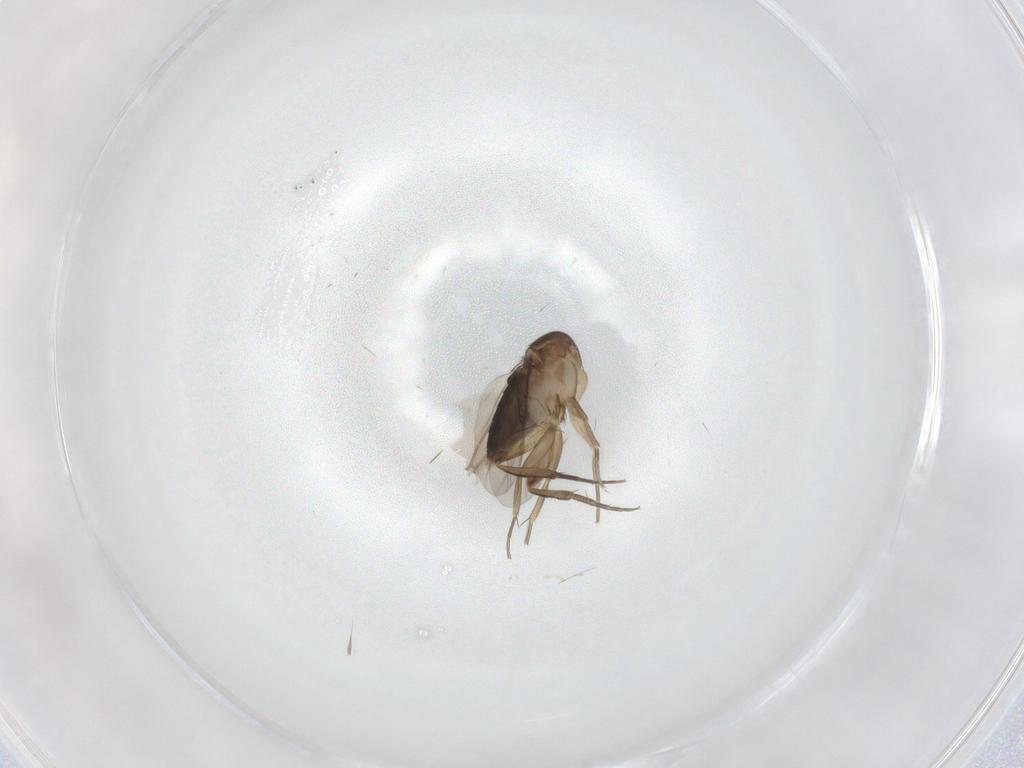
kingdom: Animalia
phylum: Arthropoda
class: Insecta
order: Diptera
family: Phoridae
